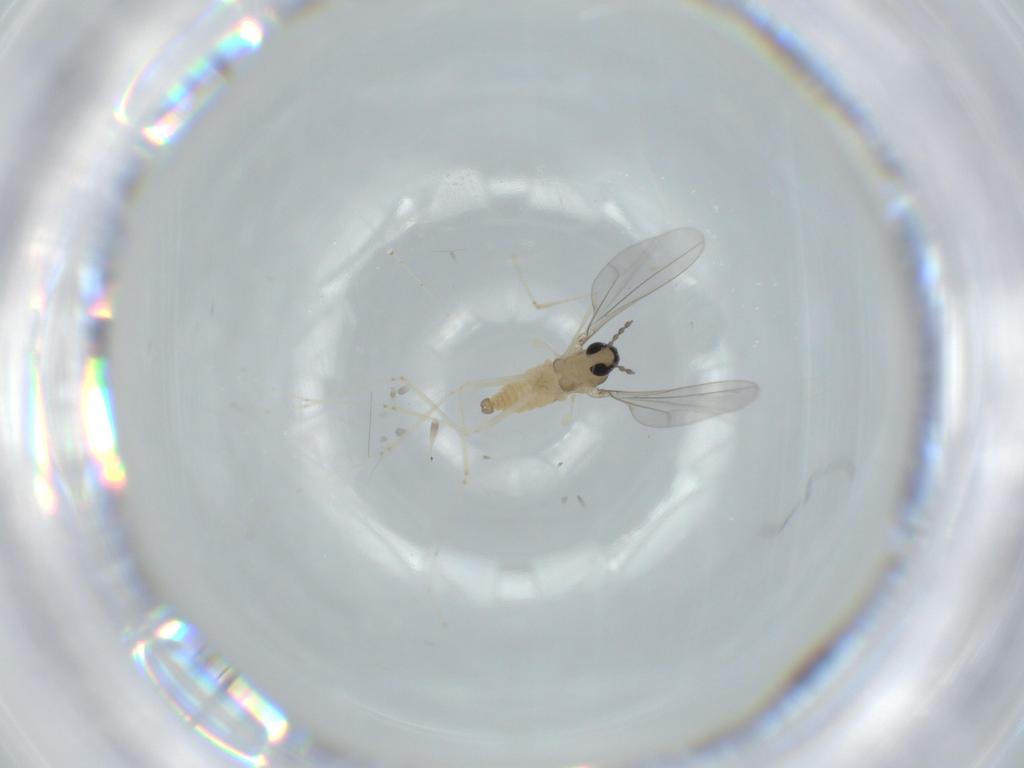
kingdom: Animalia
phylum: Arthropoda
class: Insecta
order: Diptera
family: Cecidomyiidae
